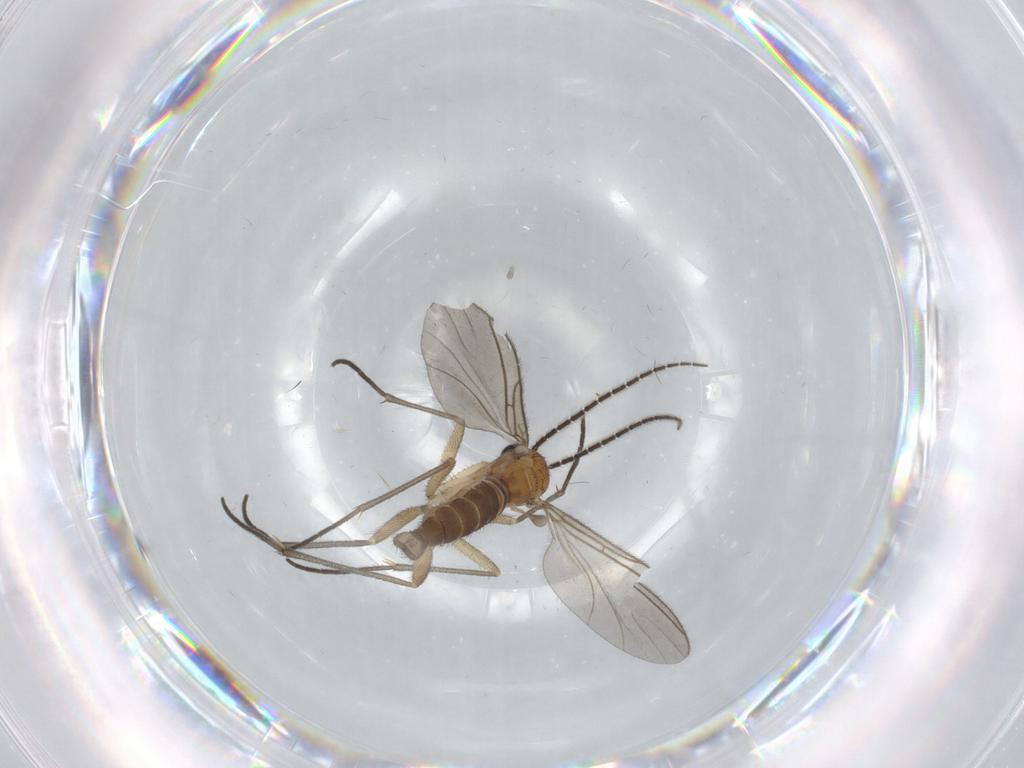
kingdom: Animalia
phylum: Arthropoda
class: Insecta
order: Diptera
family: Sciaridae
